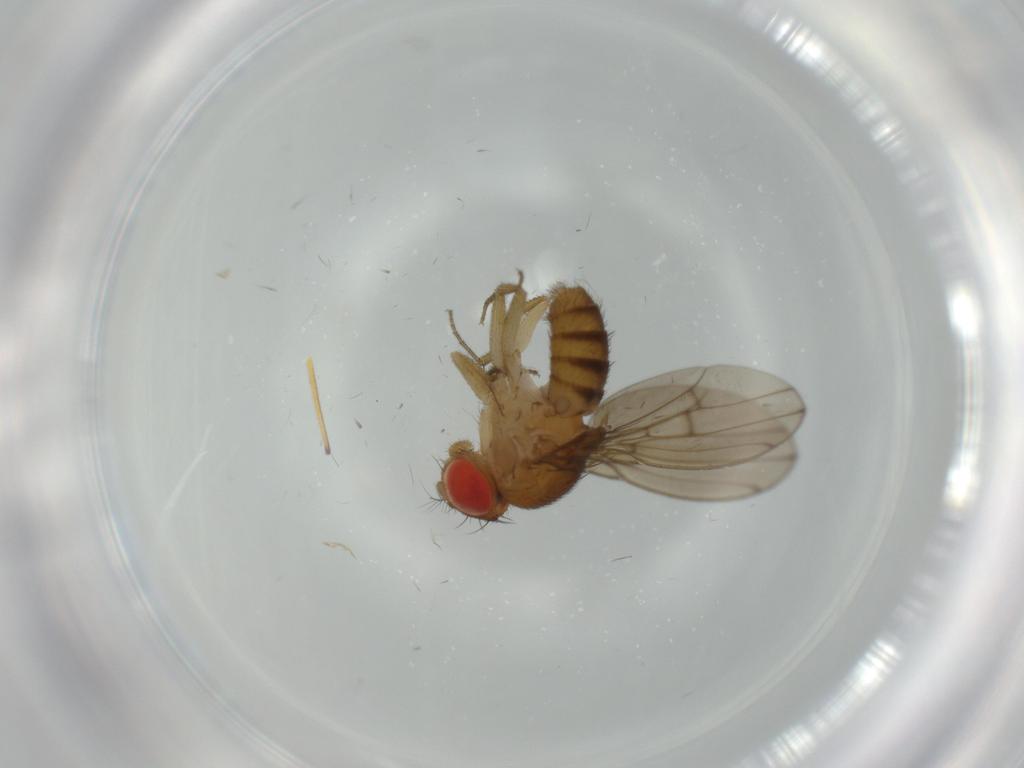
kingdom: Animalia
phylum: Arthropoda
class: Insecta
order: Diptera
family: Drosophilidae
